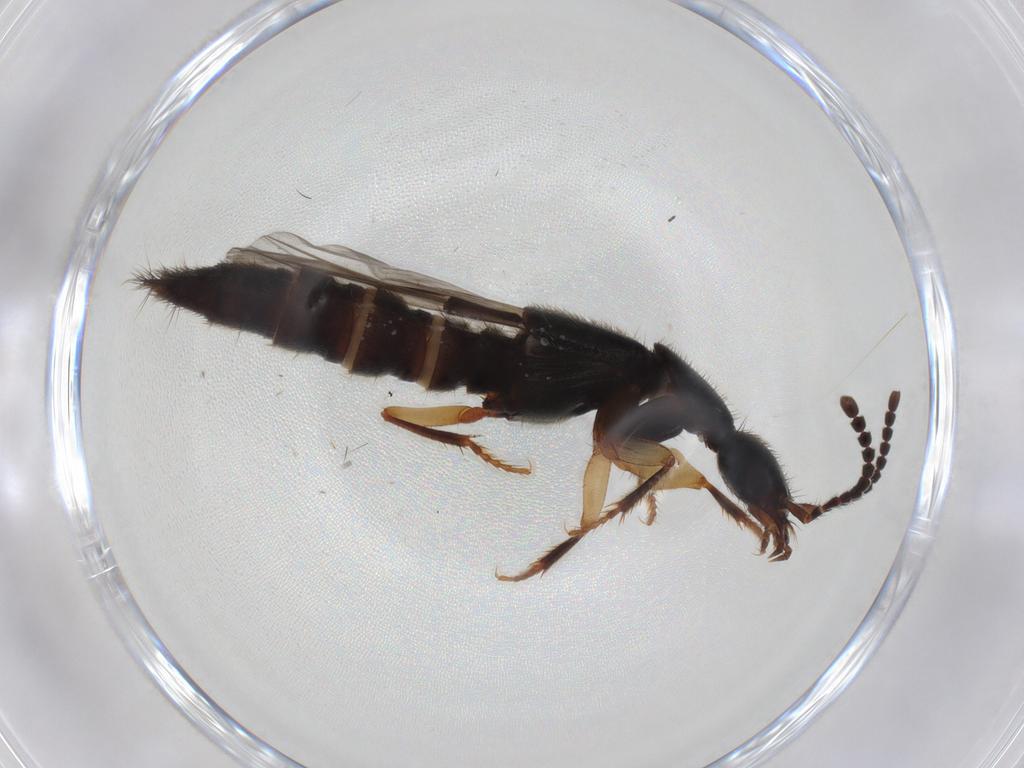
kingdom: Animalia
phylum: Arthropoda
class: Insecta
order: Coleoptera
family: Staphylinidae
